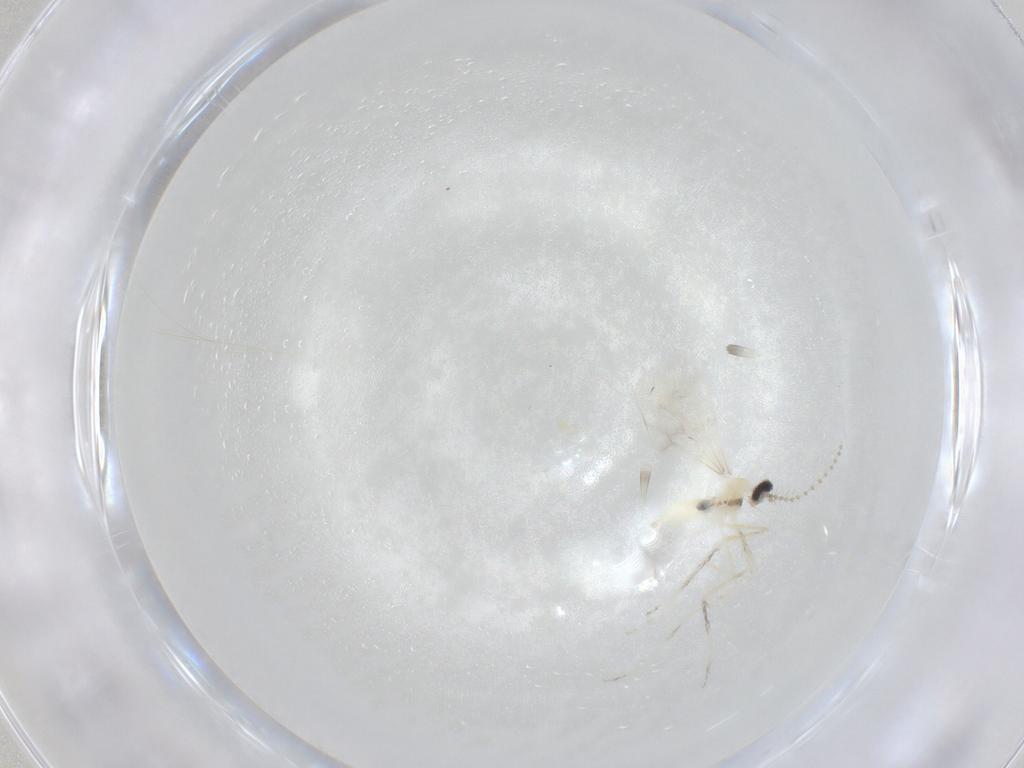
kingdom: Animalia
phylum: Arthropoda
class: Insecta
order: Diptera
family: Cecidomyiidae
